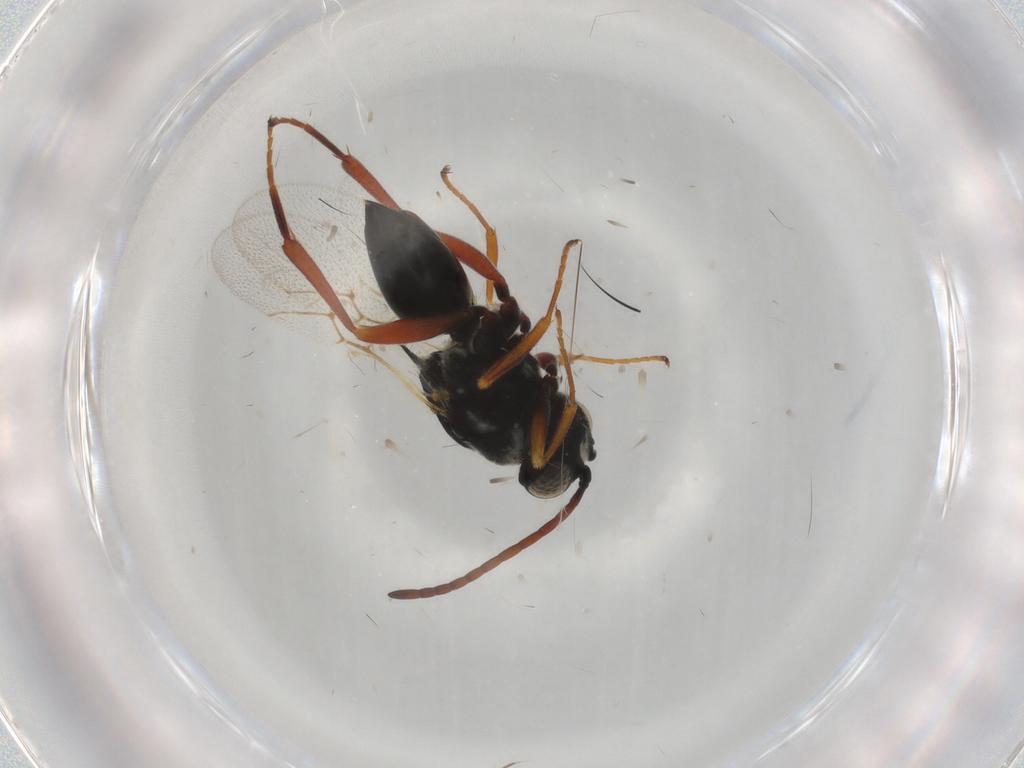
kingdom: Animalia
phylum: Arthropoda
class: Insecta
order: Hymenoptera
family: Figitidae
